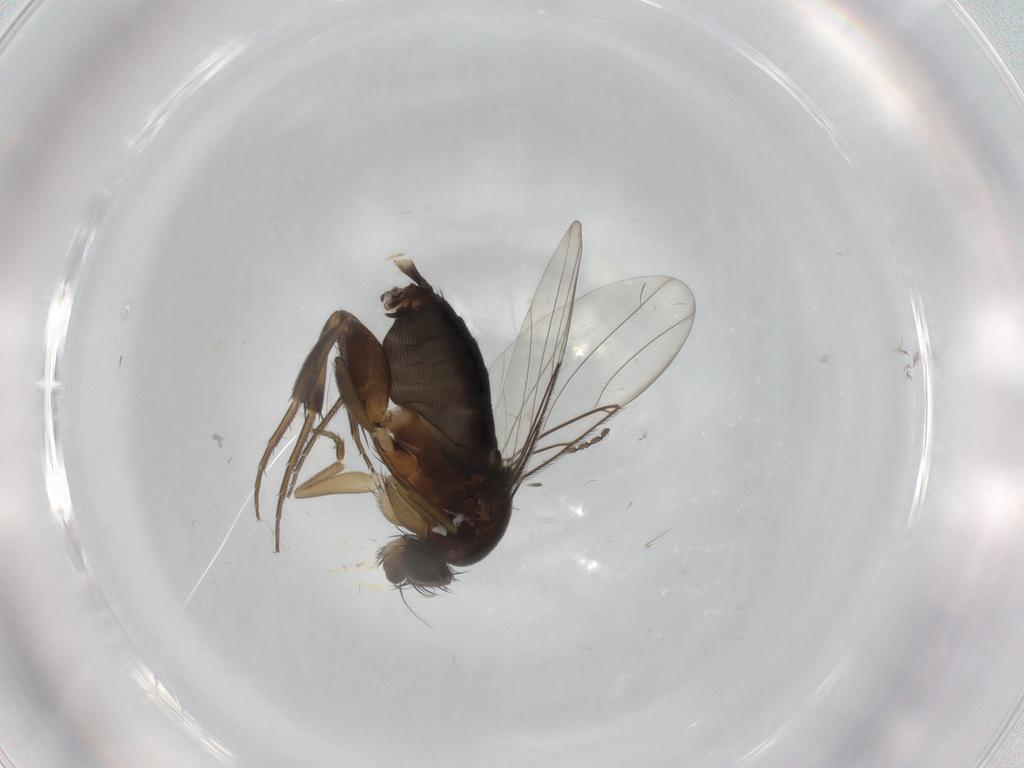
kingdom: Animalia
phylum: Arthropoda
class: Insecta
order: Diptera
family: Phoridae
